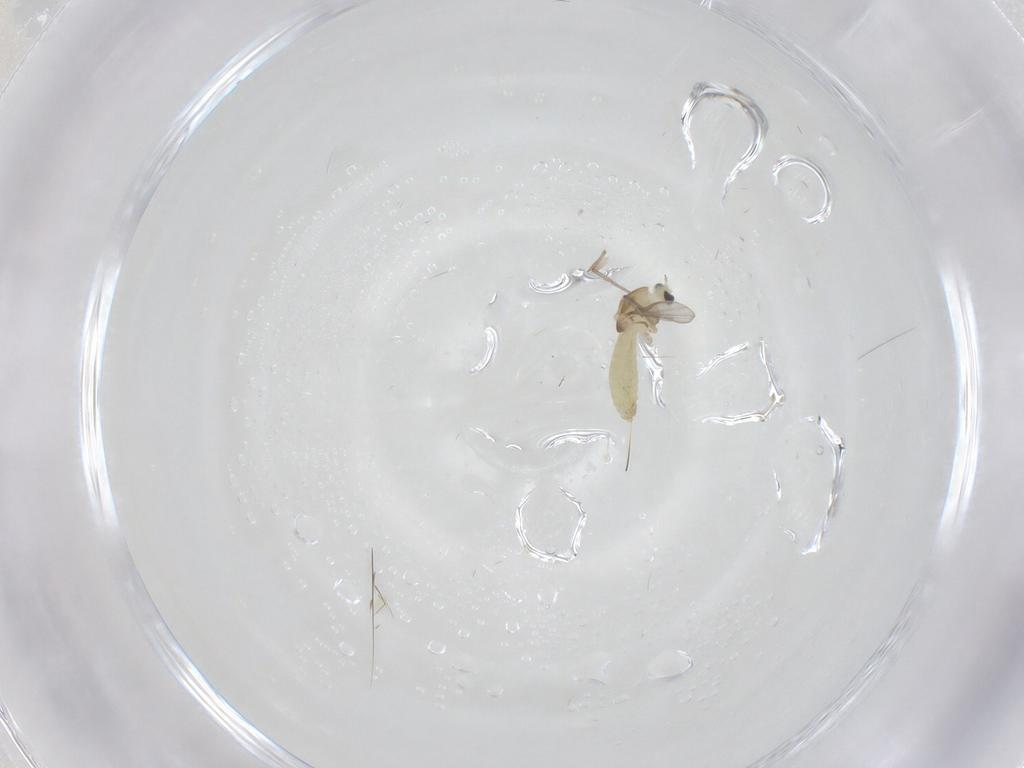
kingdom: Animalia
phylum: Arthropoda
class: Insecta
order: Diptera
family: Chironomidae
